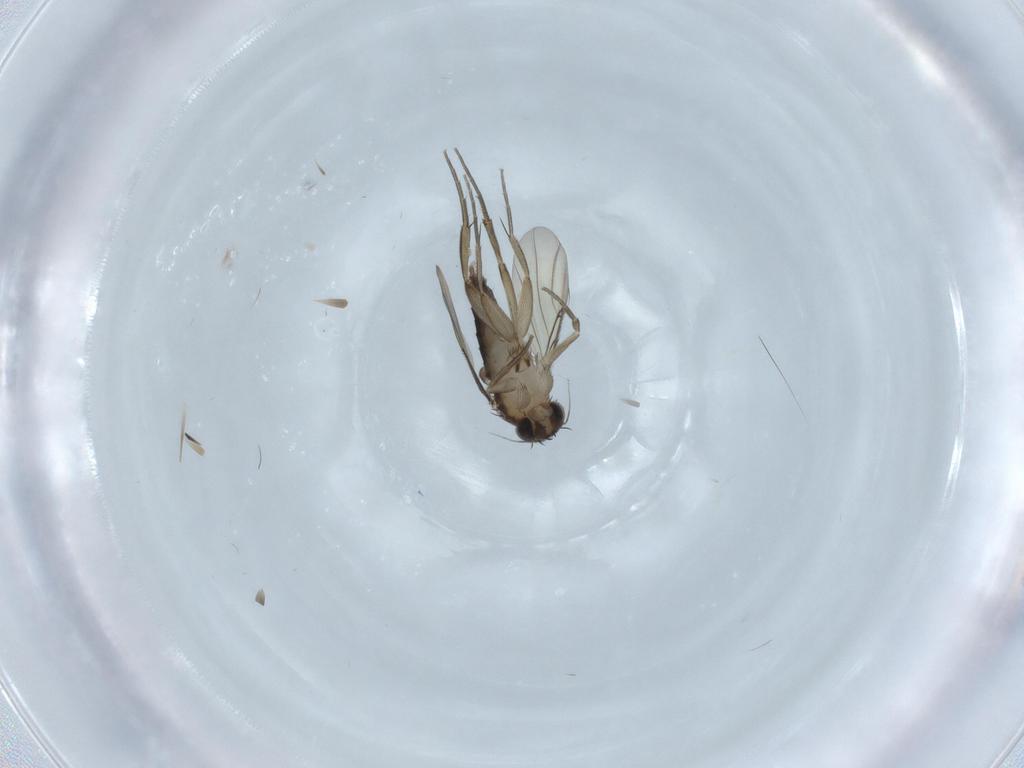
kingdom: Animalia
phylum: Arthropoda
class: Insecta
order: Diptera
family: Phoridae
